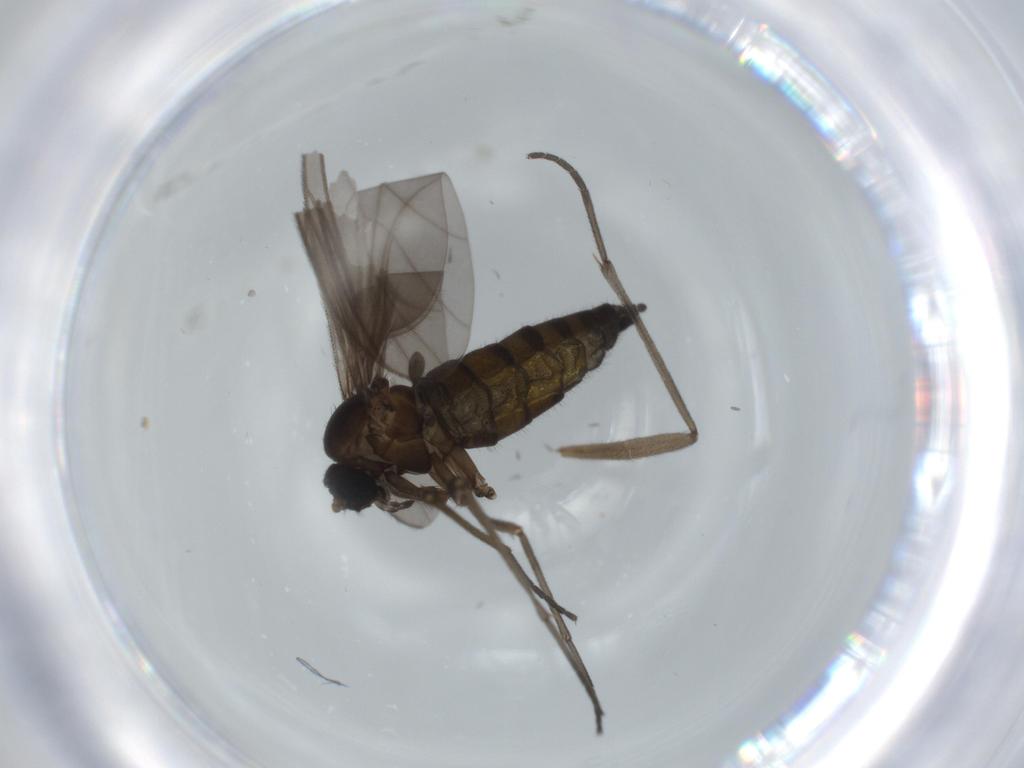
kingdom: Animalia
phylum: Arthropoda
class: Insecta
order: Diptera
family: Sciaridae
